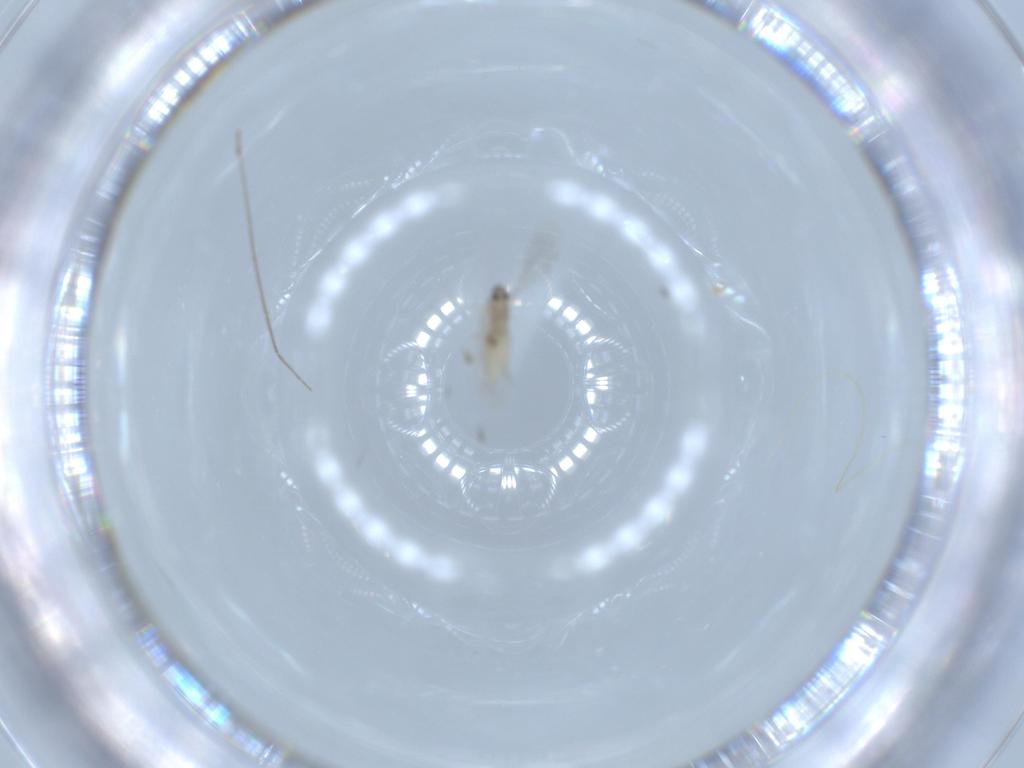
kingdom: Animalia
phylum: Arthropoda
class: Insecta
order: Diptera
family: Cecidomyiidae
